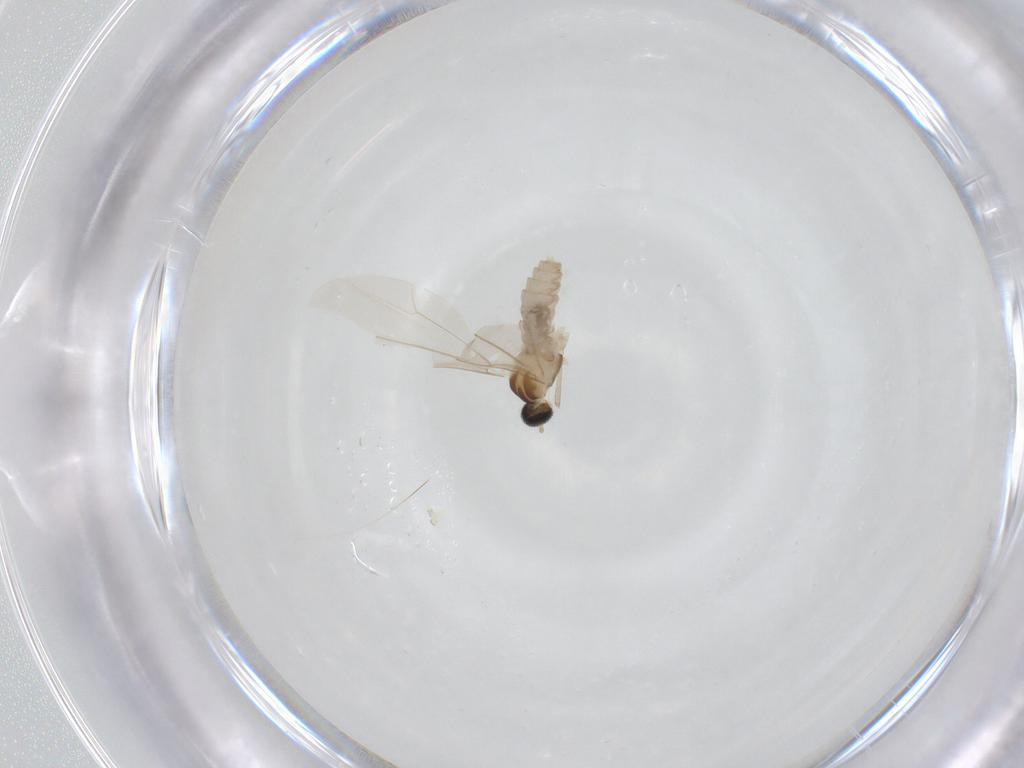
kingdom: Animalia
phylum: Arthropoda
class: Insecta
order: Diptera
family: Cecidomyiidae
